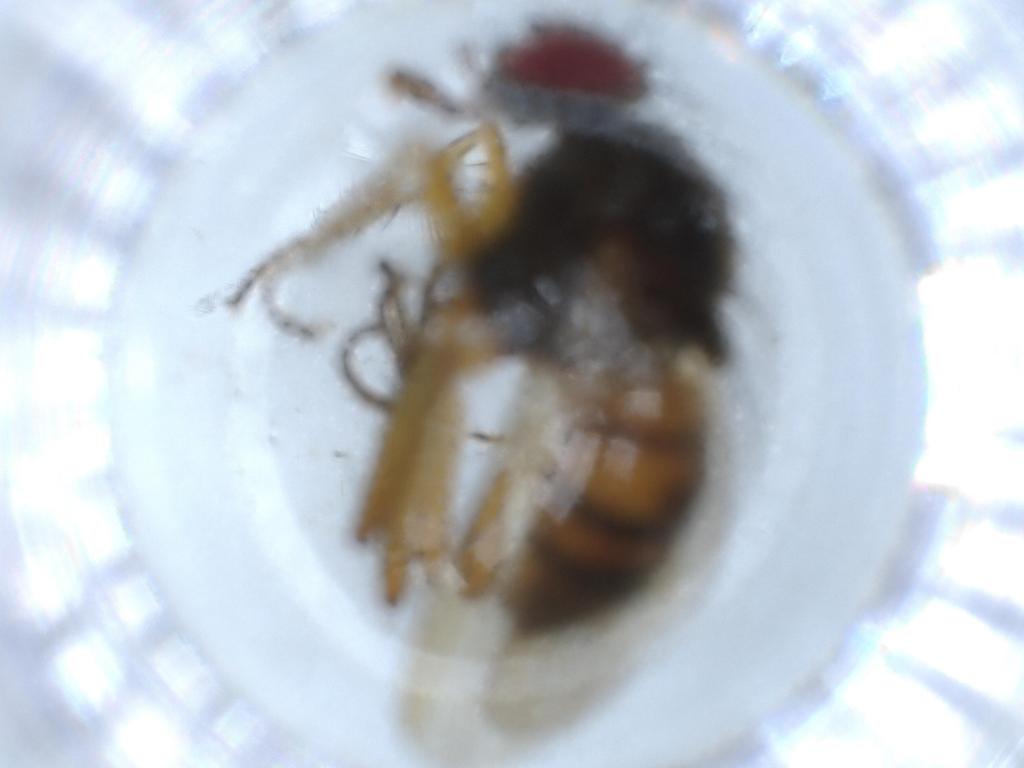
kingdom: Animalia
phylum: Arthropoda
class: Insecta
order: Diptera
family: Muscidae
